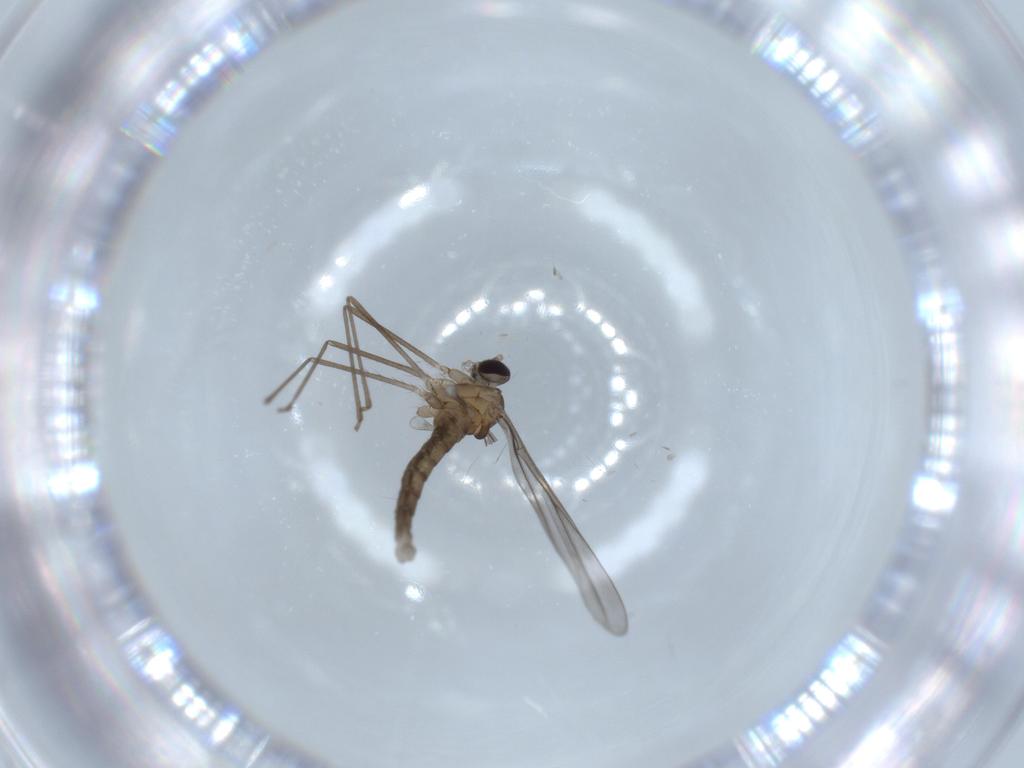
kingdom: Animalia
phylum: Arthropoda
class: Insecta
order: Diptera
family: Cecidomyiidae
